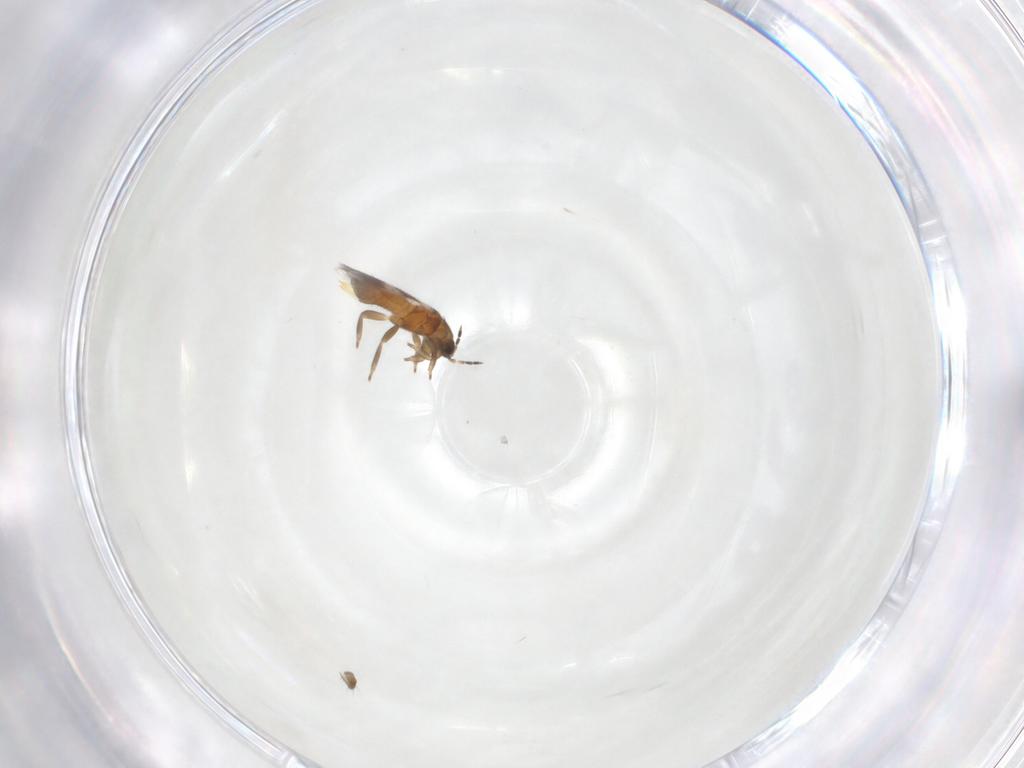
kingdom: Animalia
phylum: Arthropoda
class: Insecta
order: Thysanoptera
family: Aeolothripidae
